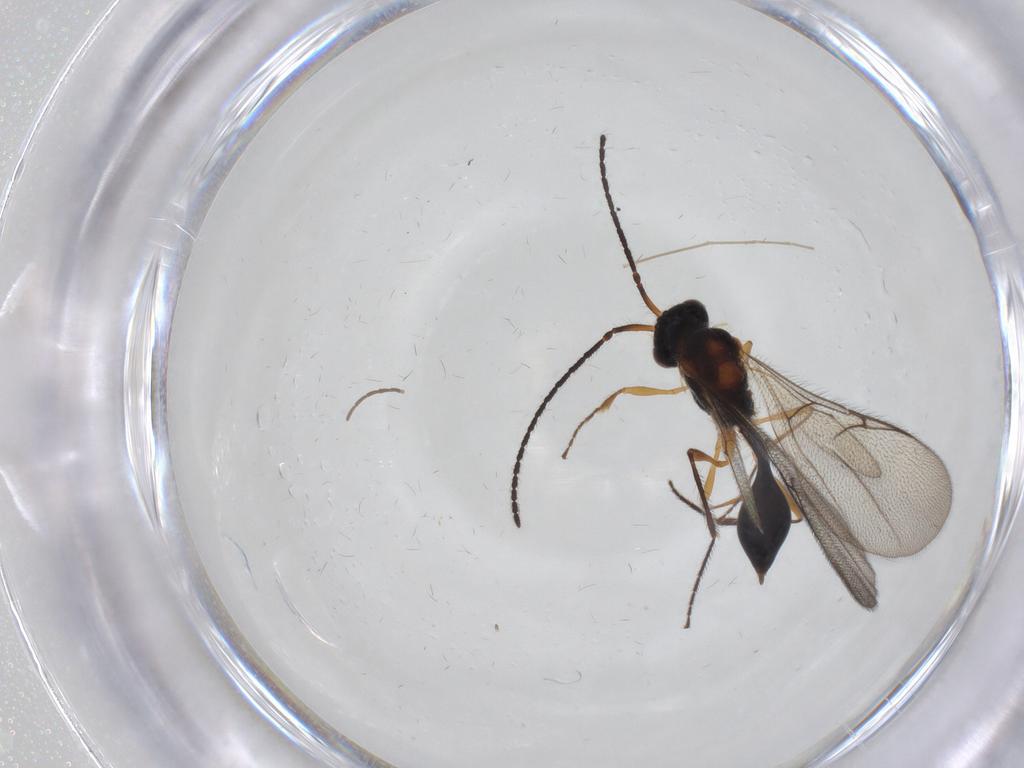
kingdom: Animalia
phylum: Arthropoda
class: Insecta
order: Hymenoptera
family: Diapriidae
